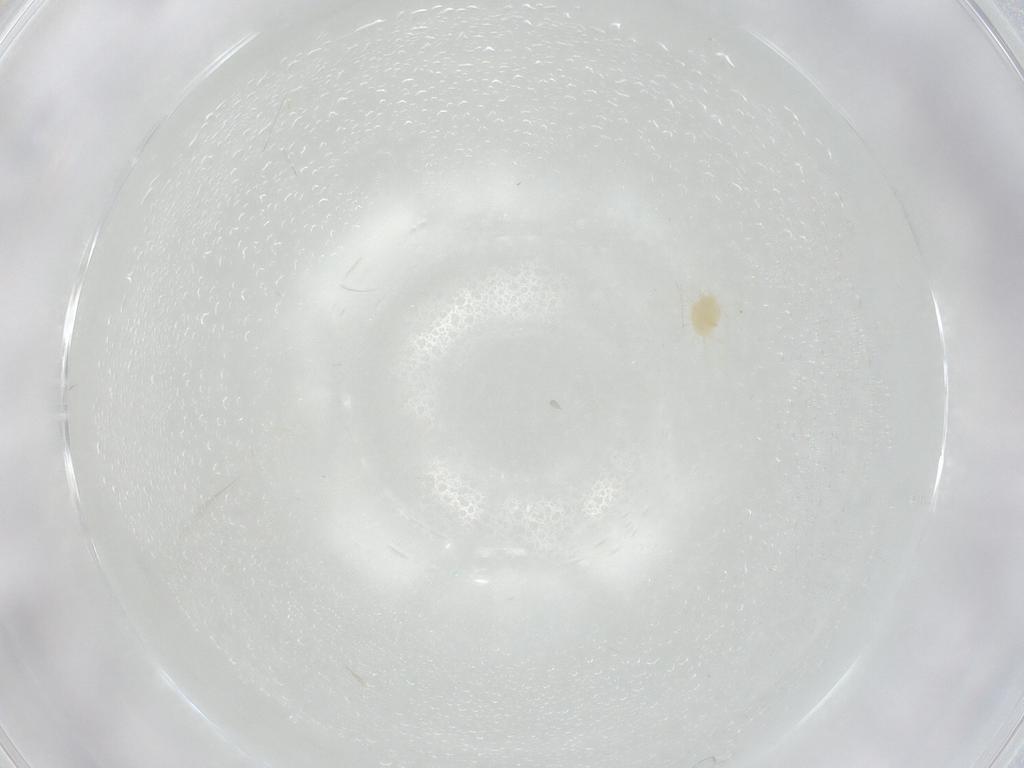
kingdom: Animalia
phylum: Arthropoda
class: Arachnida
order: Trombidiformes
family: Tetranychidae
